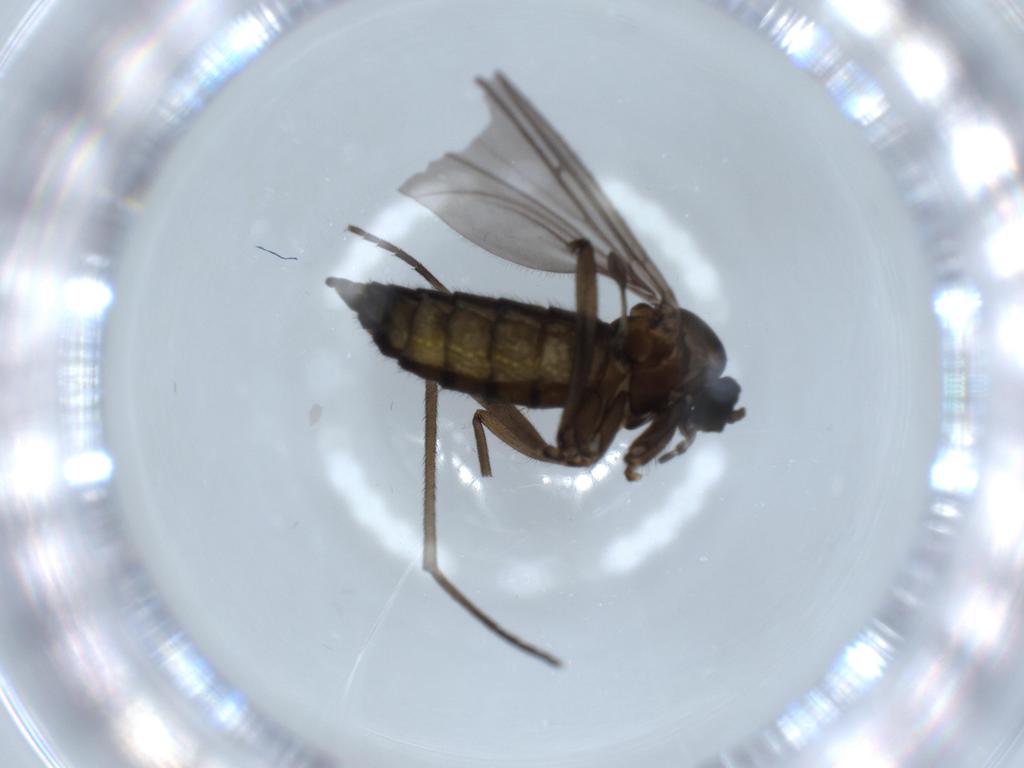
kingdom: Animalia
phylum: Arthropoda
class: Insecta
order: Diptera
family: Sciaridae
